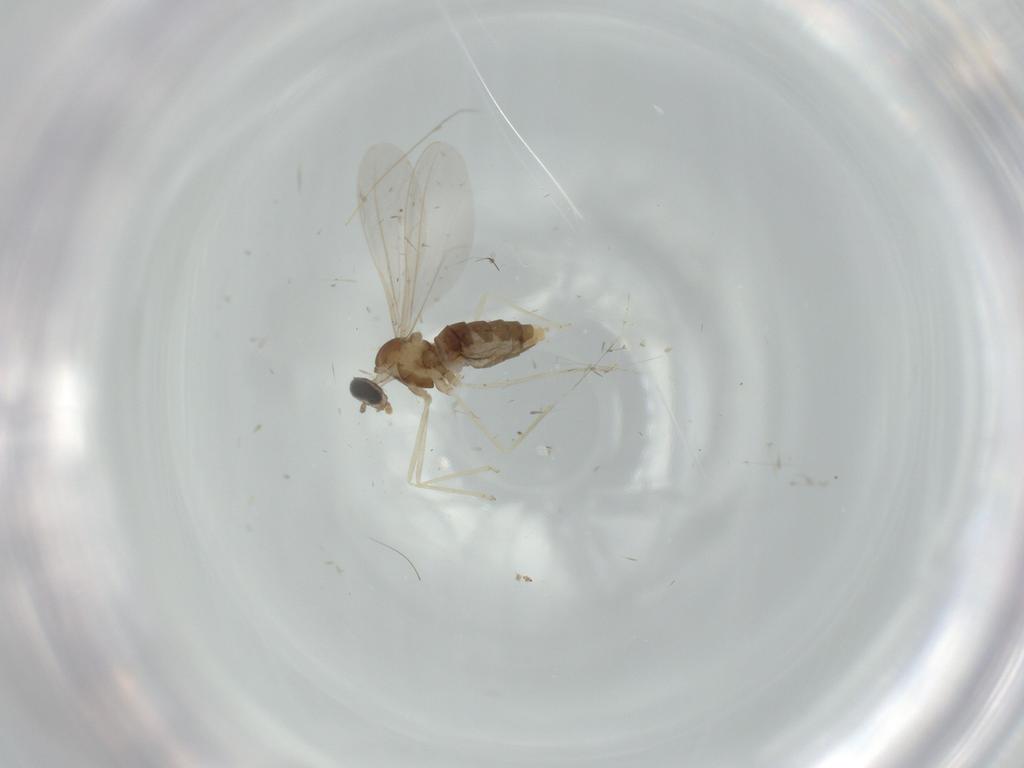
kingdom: Animalia
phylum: Arthropoda
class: Insecta
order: Diptera
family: Cecidomyiidae
